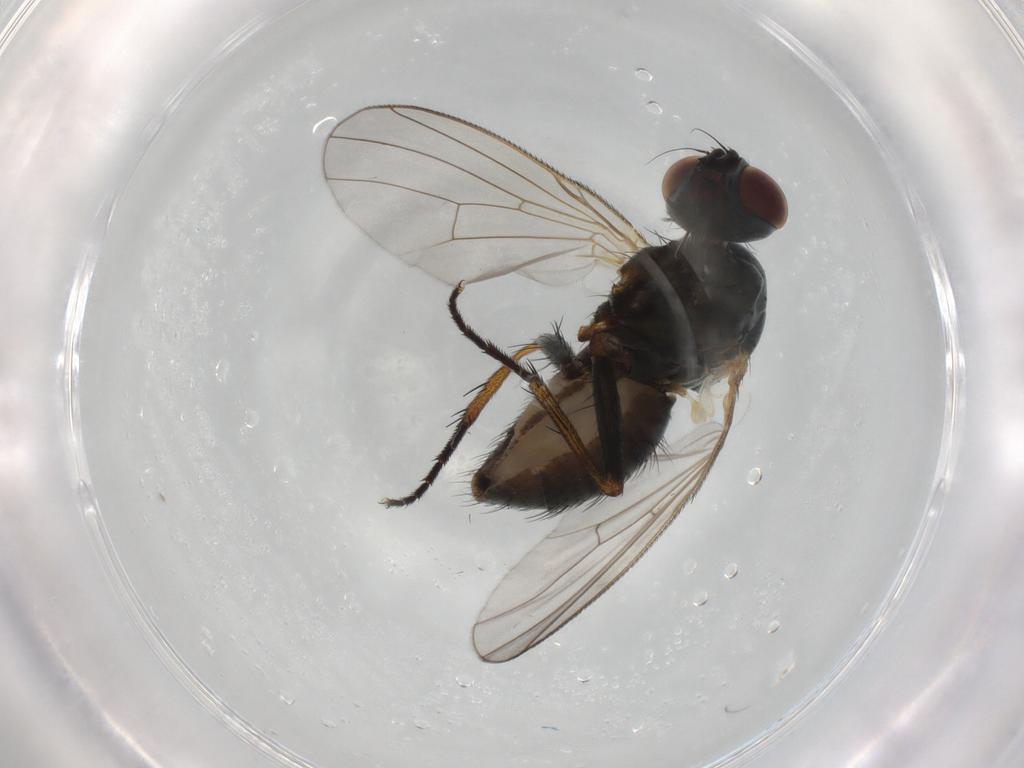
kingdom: Animalia
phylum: Arthropoda
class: Insecta
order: Diptera
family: Muscidae
